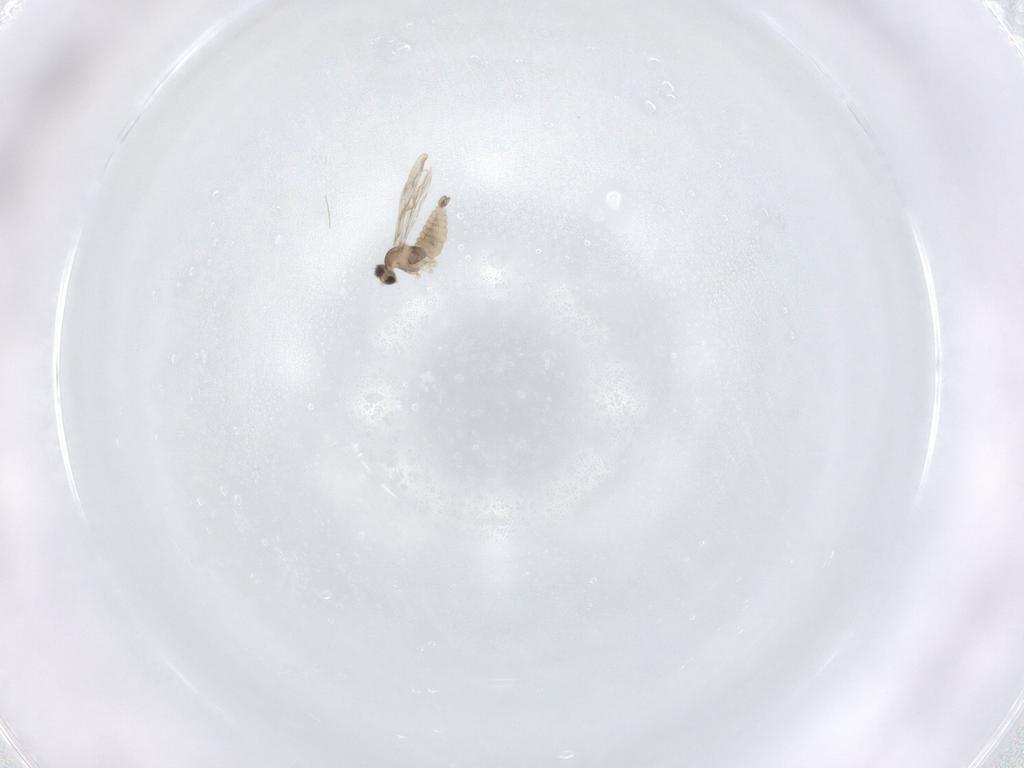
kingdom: Animalia
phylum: Arthropoda
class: Insecta
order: Diptera
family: Cecidomyiidae
